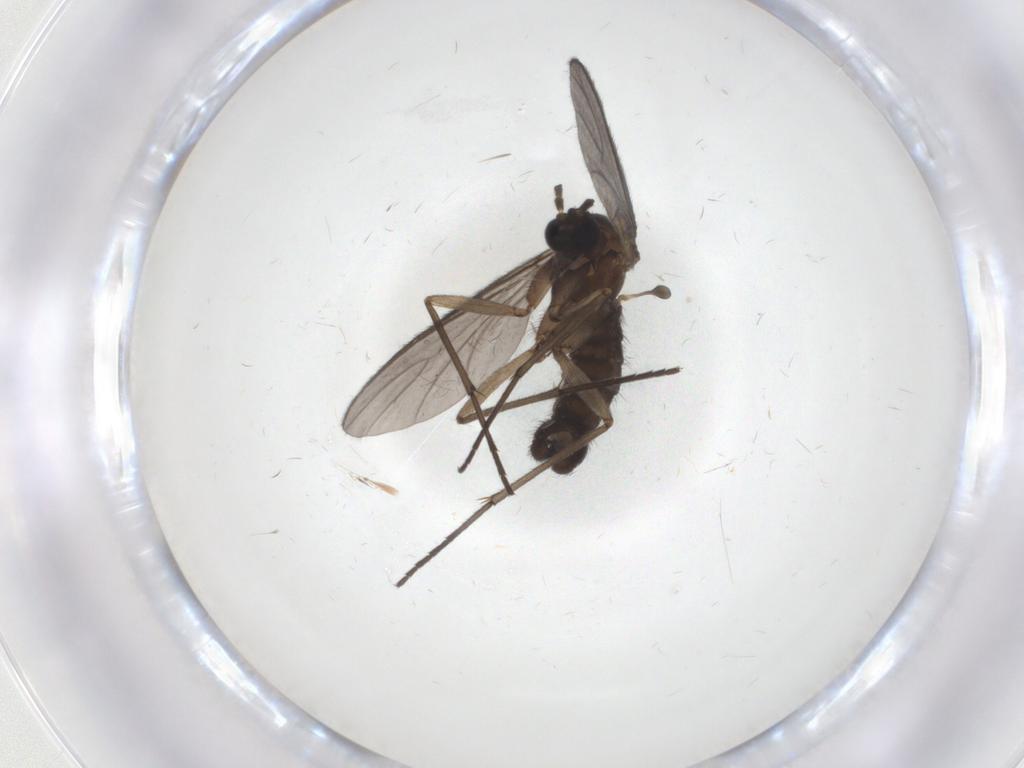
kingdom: Animalia
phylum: Arthropoda
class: Insecta
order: Diptera
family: Sciaridae
